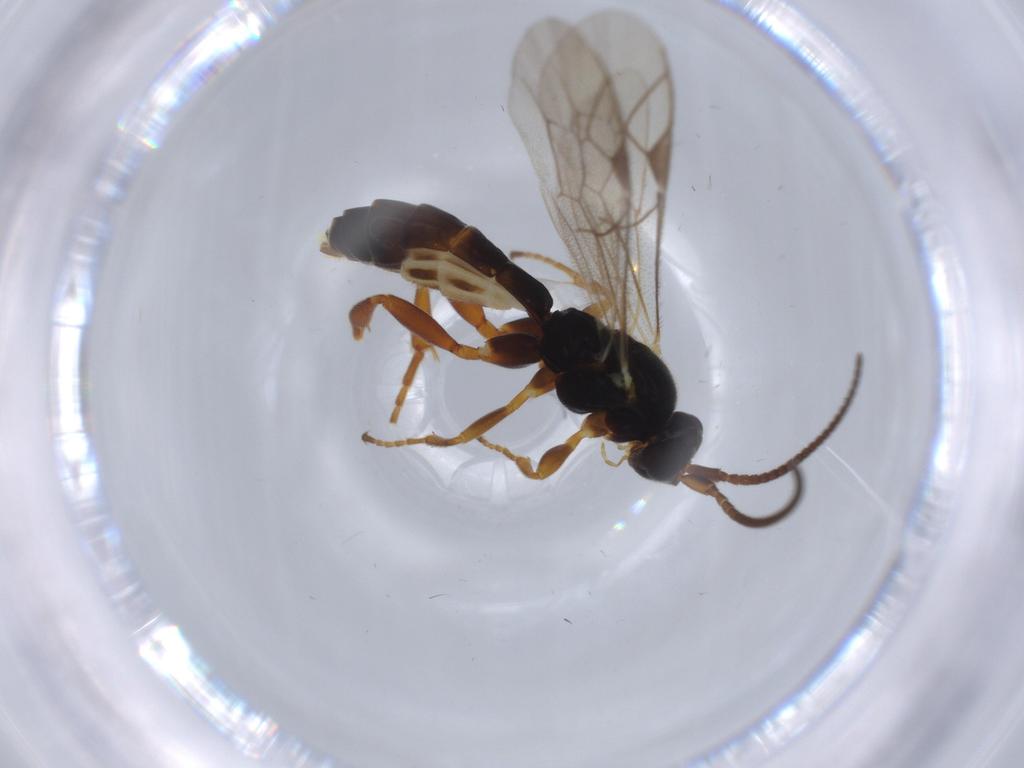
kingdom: Animalia
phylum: Arthropoda
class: Insecta
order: Hymenoptera
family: Ichneumonidae
